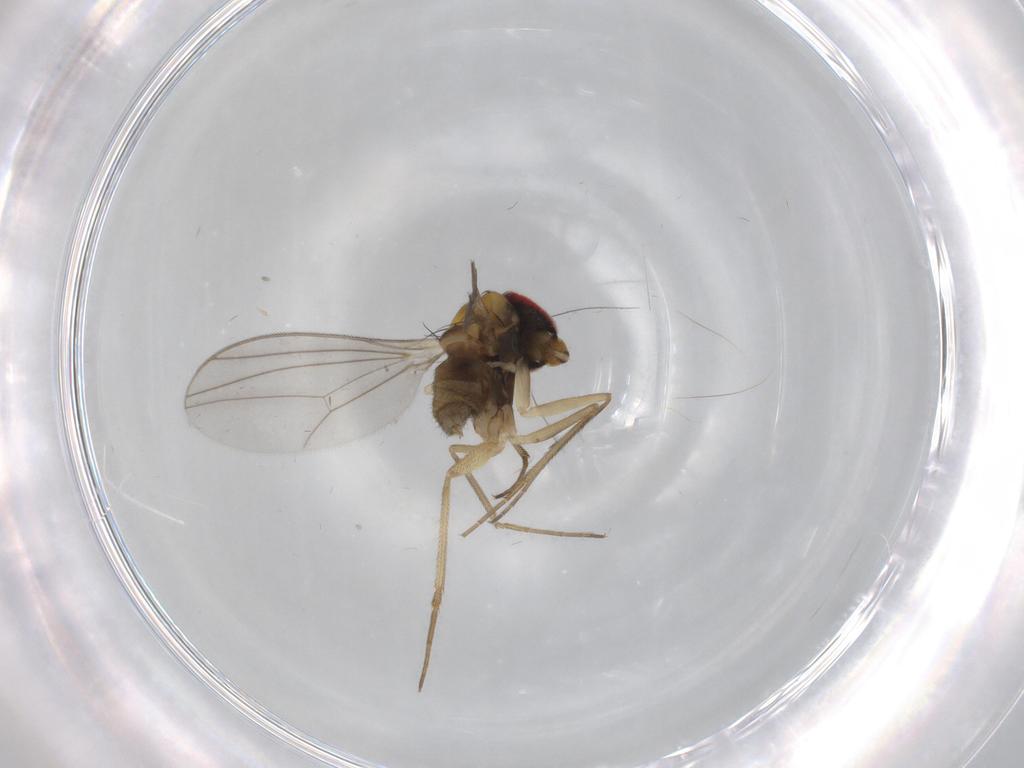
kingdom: Animalia
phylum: Arthropoda
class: Insecta
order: Diptera
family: Dolichopodidae
